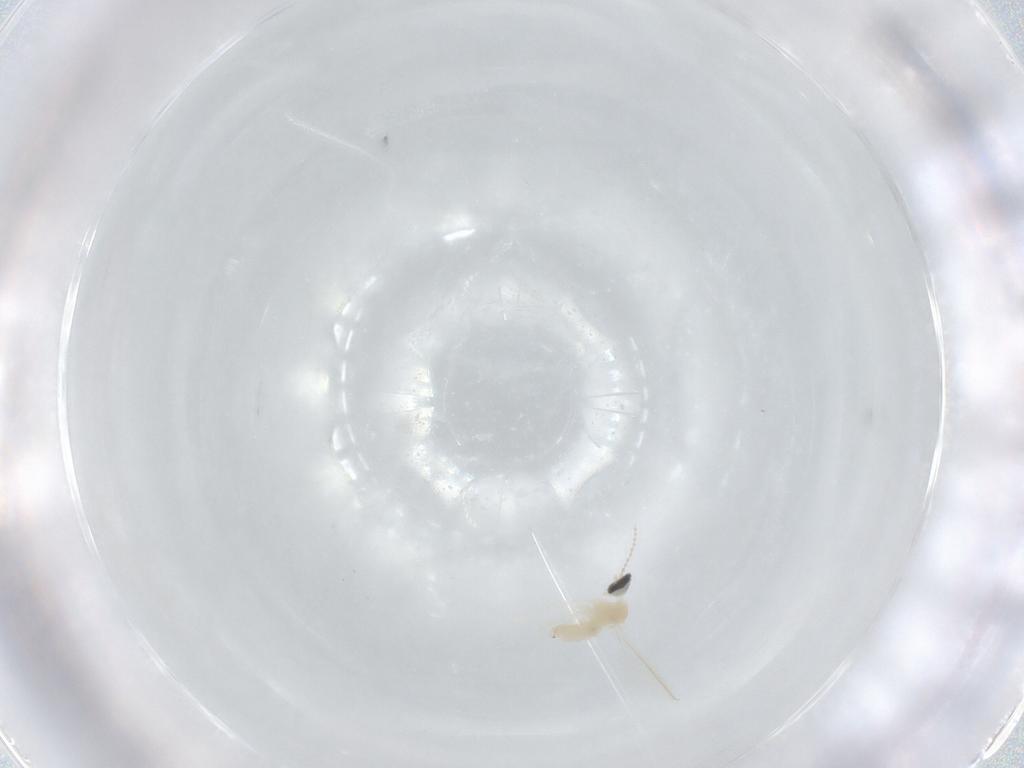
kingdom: Animalia
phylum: Arthropoda
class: Insecta
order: Diptera
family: Cecidomyiidae
